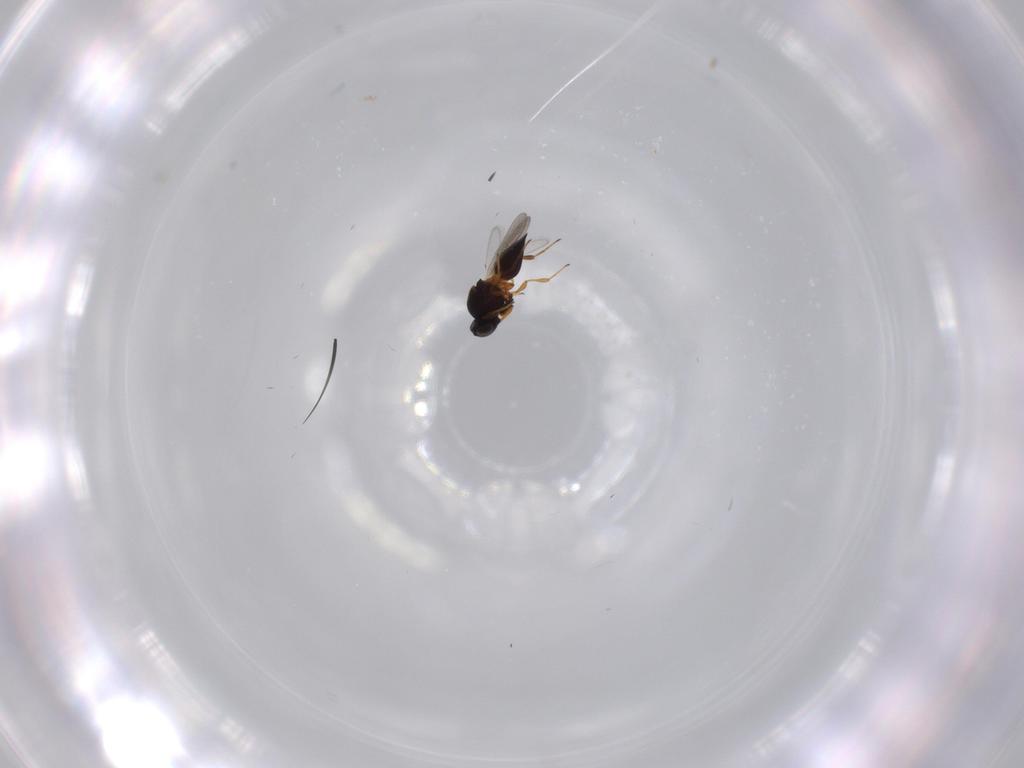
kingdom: Animalia
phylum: Arthropoda
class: Insecta
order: Hymenoptera
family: Platygastridae
